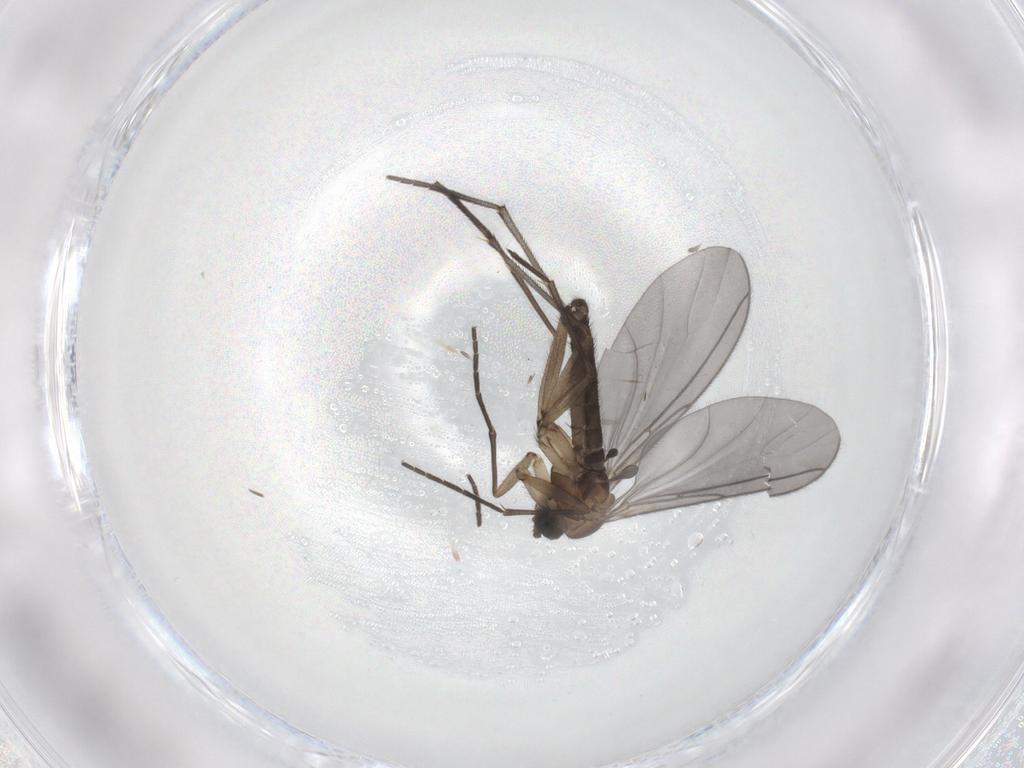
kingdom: Animalia
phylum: Arthropoda
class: Insecta
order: Diptera
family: Sciaridae
